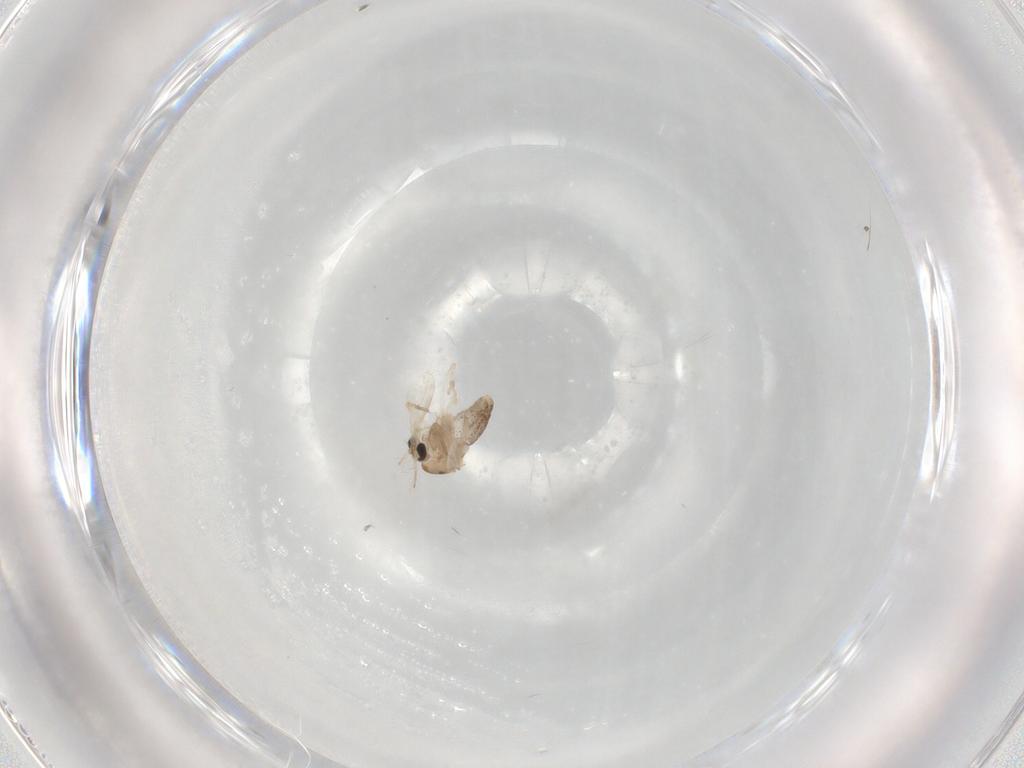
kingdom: Animalia
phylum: Arthropoda
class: Insecta
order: Diptera
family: Chironomidae
